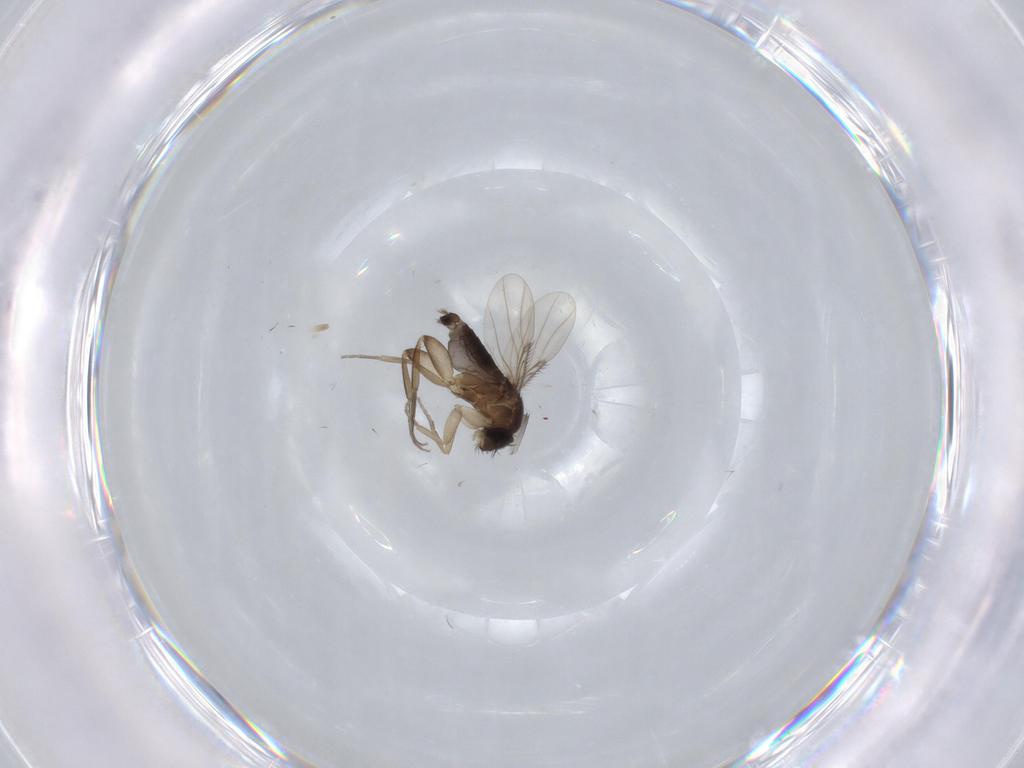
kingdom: Animalia
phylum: Arthropoda
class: Insecta
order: Diptera
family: Phoridae
